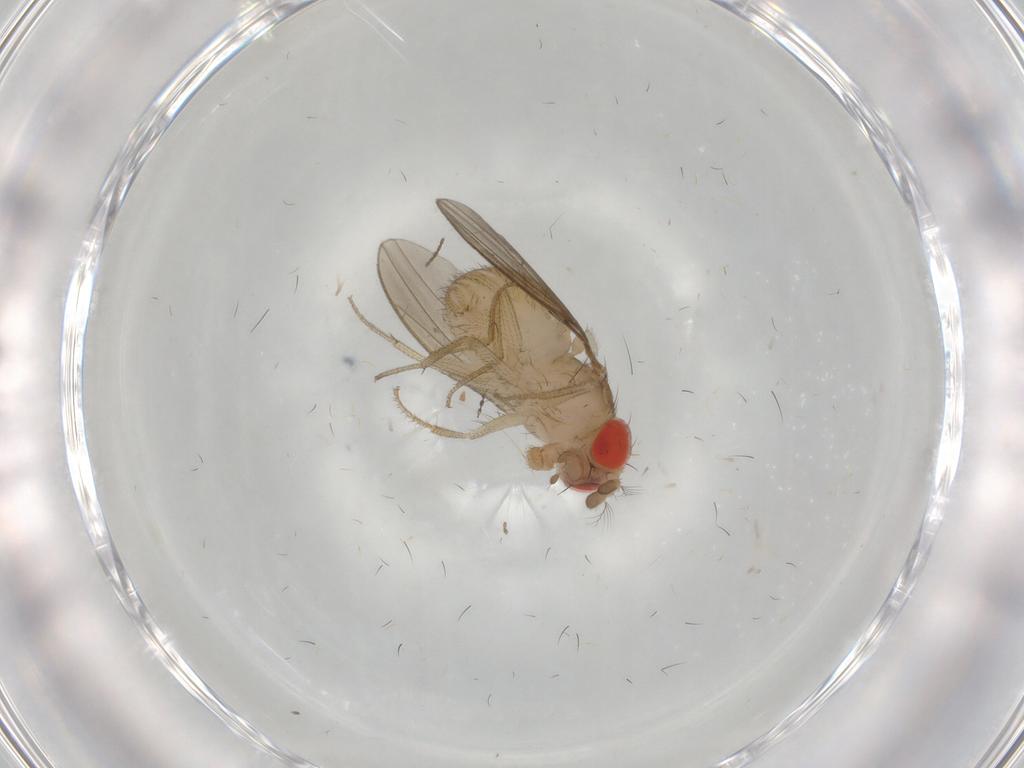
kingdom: Animalia
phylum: Arthropoda
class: Insecta
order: Diptera
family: Drosophilidae
